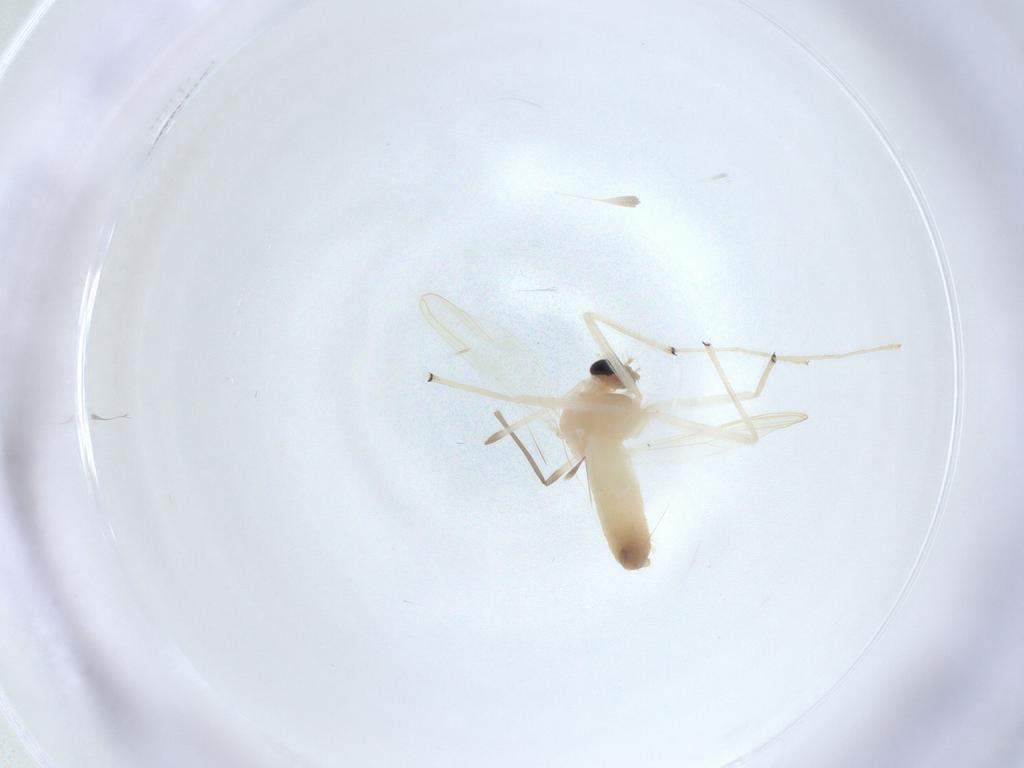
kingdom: Animalia
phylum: Arthropoda
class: Insecta
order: Diptera
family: Chironomidae
